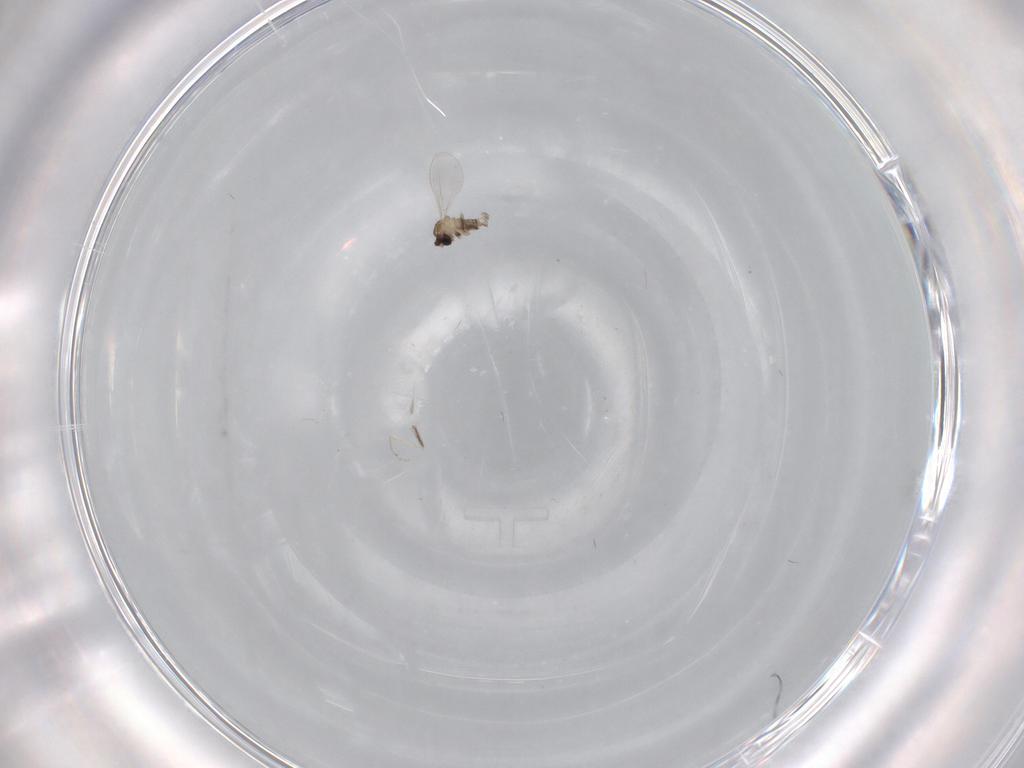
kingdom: Animalia
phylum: Arthropoda
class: Insecta
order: Diptera
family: Cecidomyiidae
